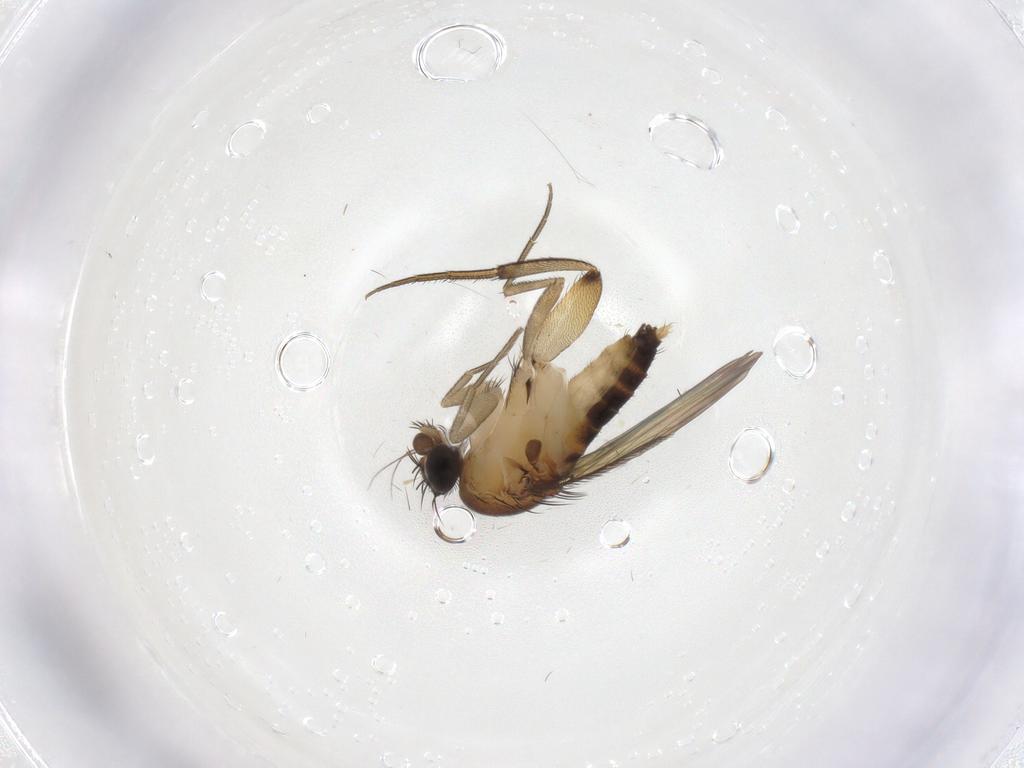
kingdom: Animalia
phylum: Arthropoda
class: Insecta
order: Diptera
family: Phoridae
